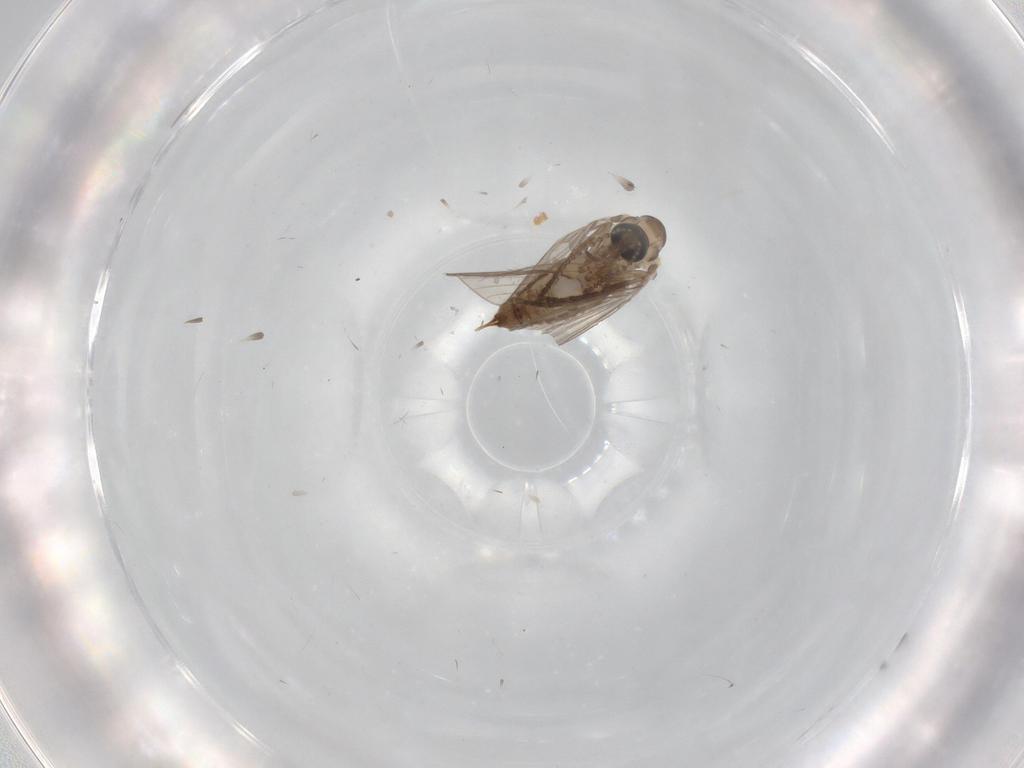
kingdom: Animalia
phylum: Arthropoda
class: Insecta
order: Diptera
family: Psychodidae
